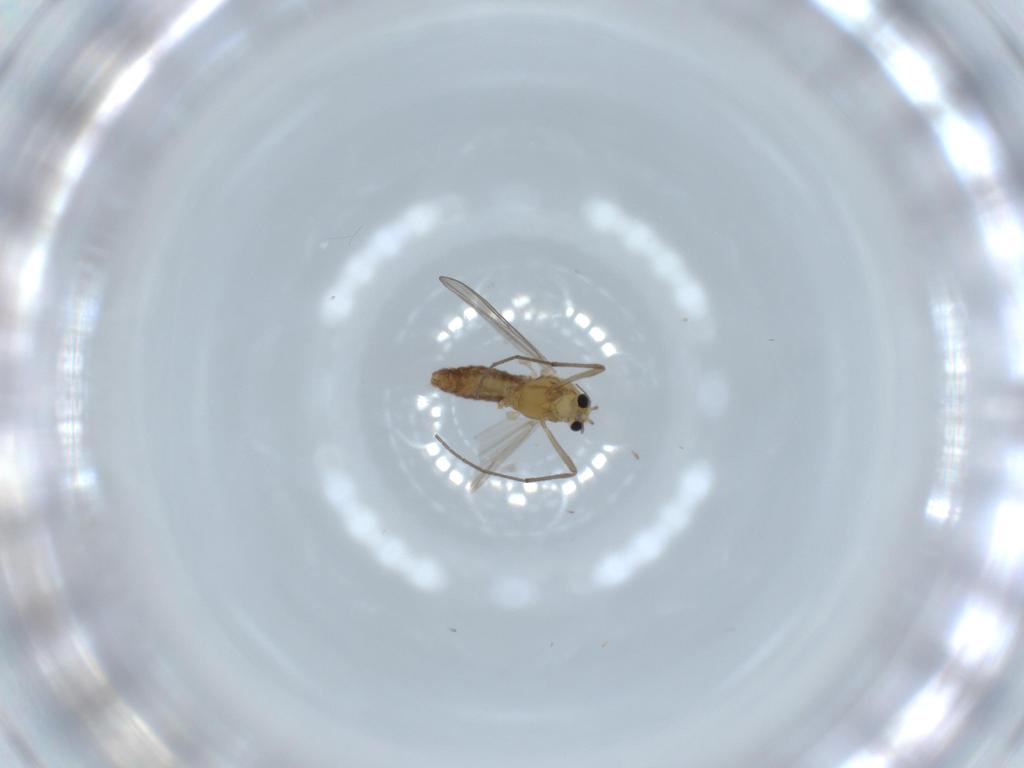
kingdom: Animalia
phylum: Arthropoda
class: Insecta
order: Diptera
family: Chironomidae
